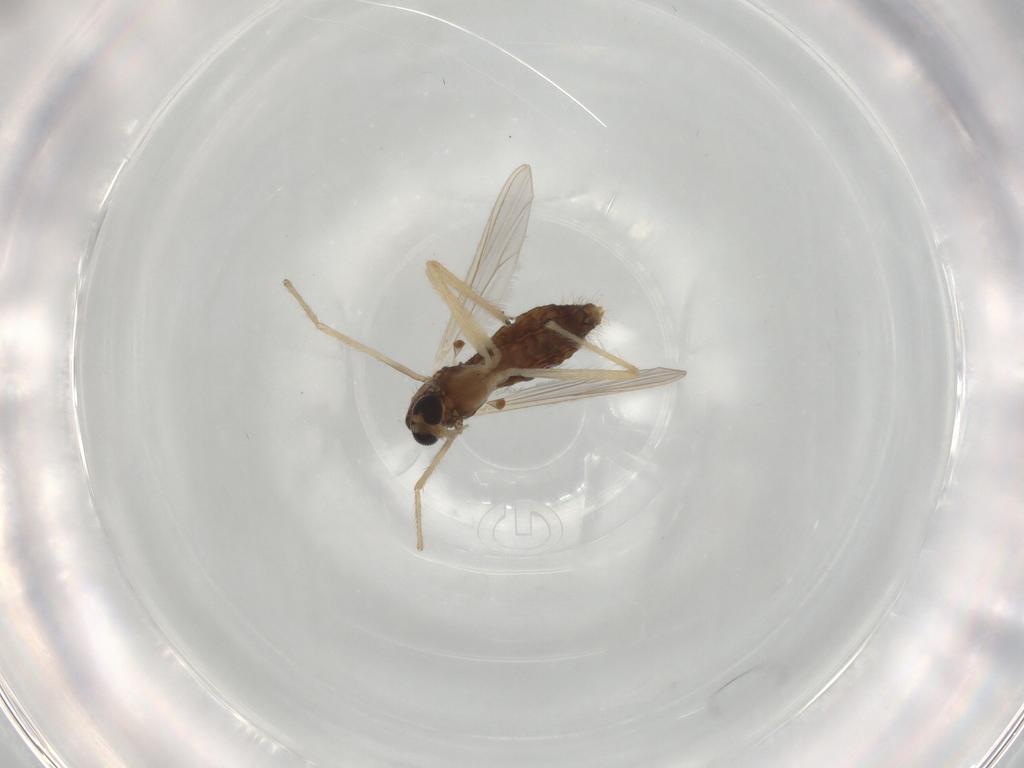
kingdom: Animalia
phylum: Arthropoda
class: Insecta
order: Diptera
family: Chironomidae
